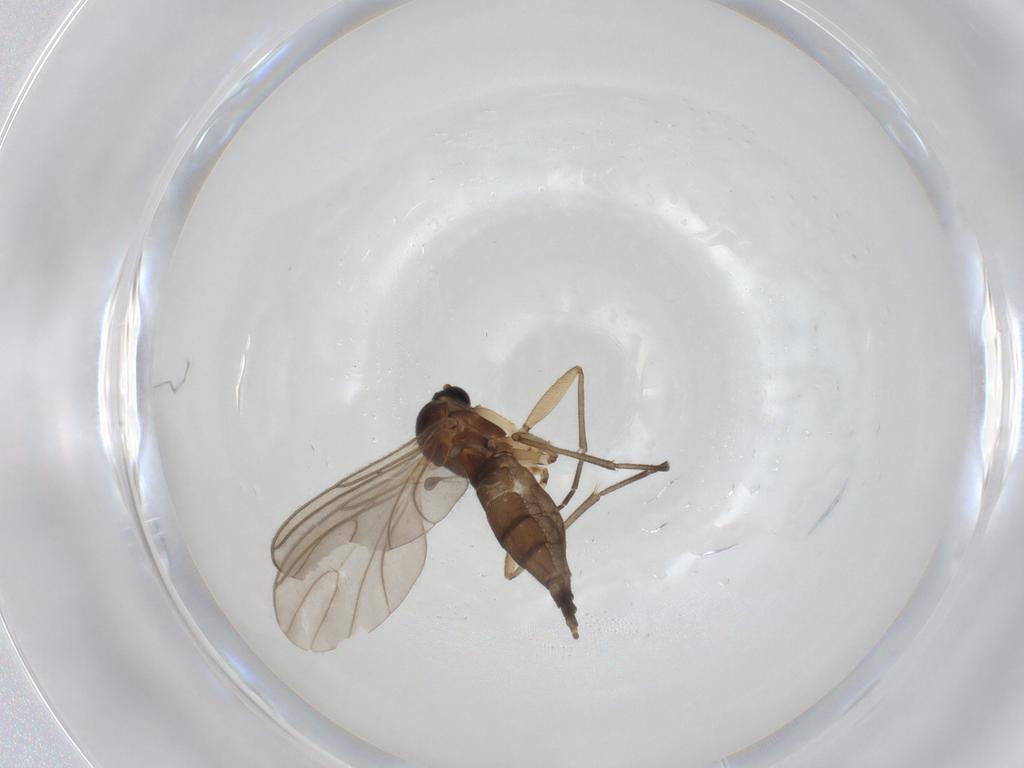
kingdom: Animalia
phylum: Arthropoda
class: Insecta
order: Diptera
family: Sciaridae
